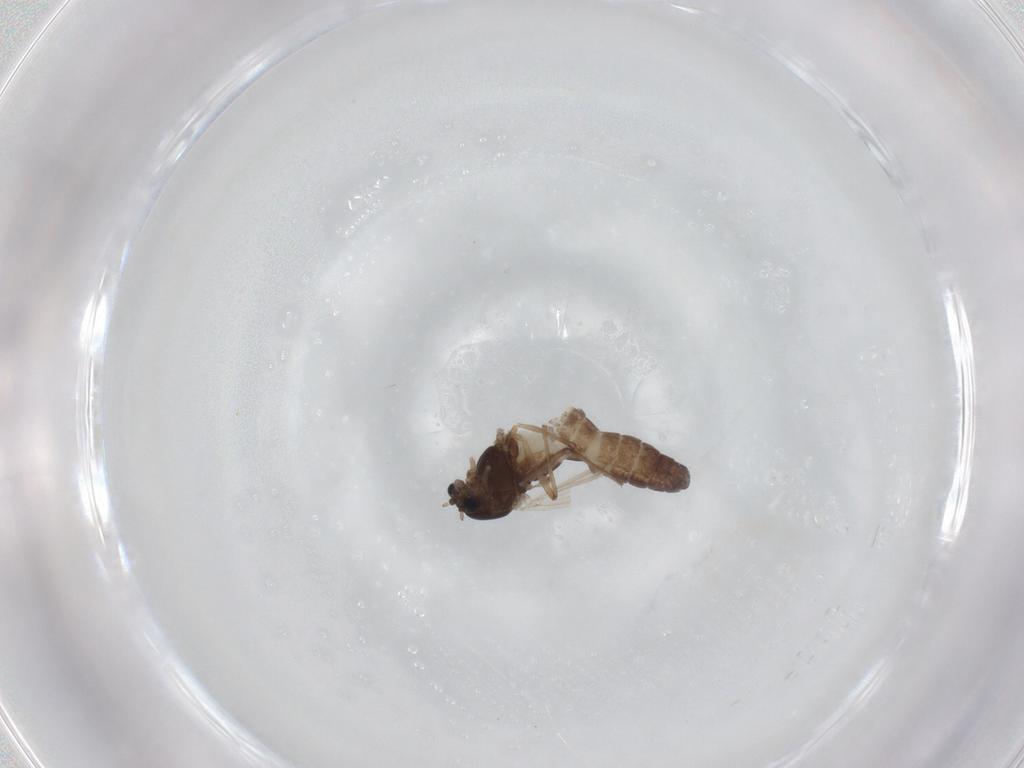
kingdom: Animalia
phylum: Arthropoda
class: Insecta
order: Diptera
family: Chironomidae
